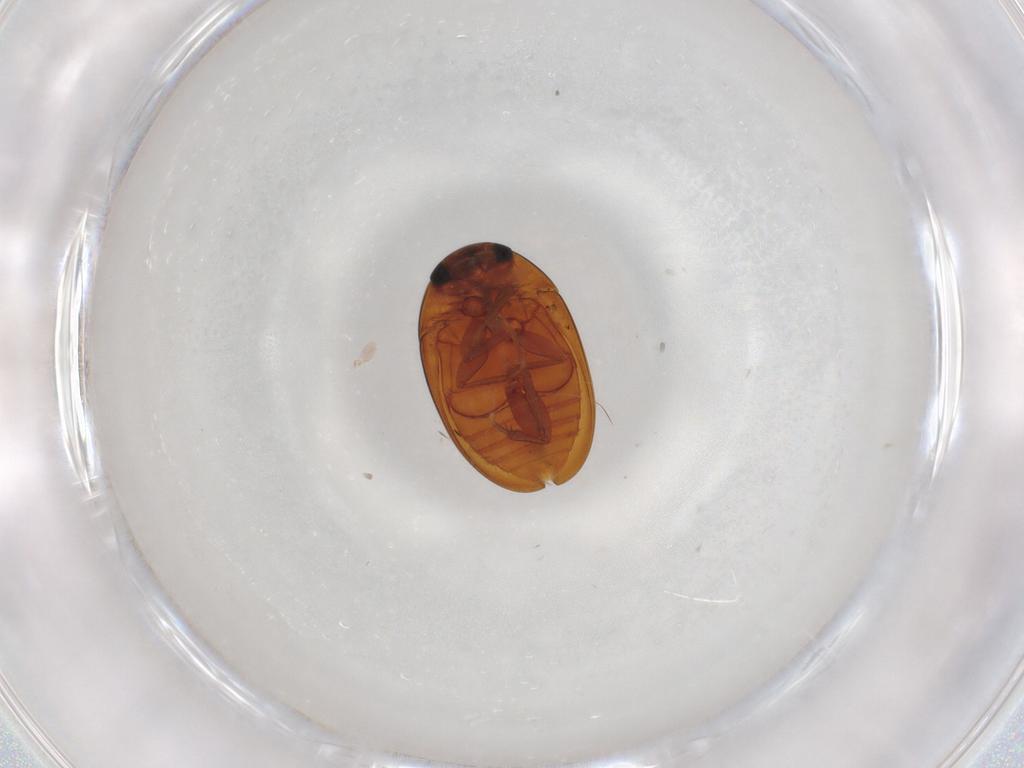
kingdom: Animalia
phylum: Arthropoda
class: Insecta
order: Coleoptera
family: Phalacridae
